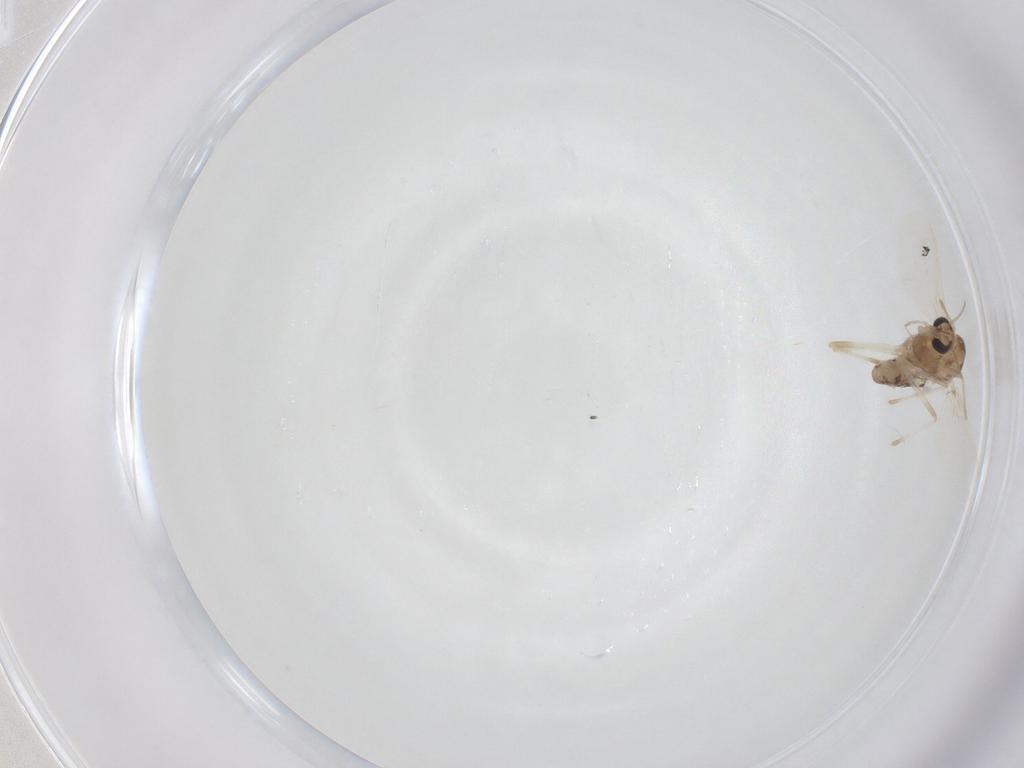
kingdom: Animalia
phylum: Arthropoda
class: Insecta
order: Diptera
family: Chironomidae
